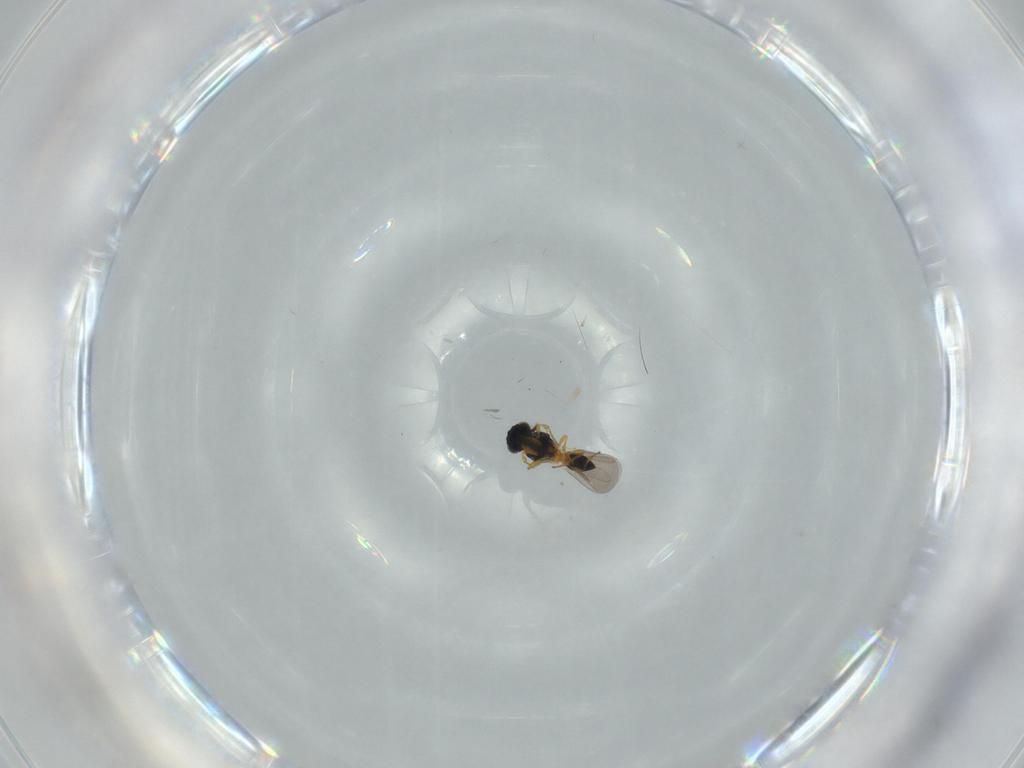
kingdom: Animalia
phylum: Arthropoda
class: Insecta
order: Hymenoptera
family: Platygastridae
